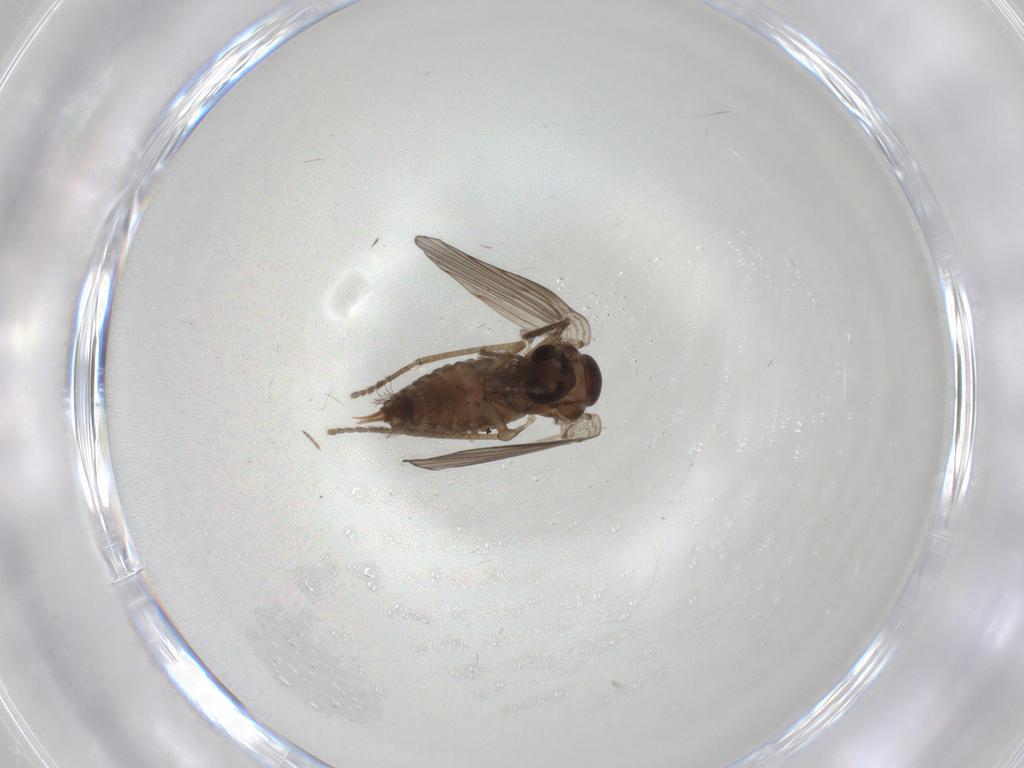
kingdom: Animalia
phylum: Arthropoda
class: Insecta
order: Diptera
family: Psychodidae
